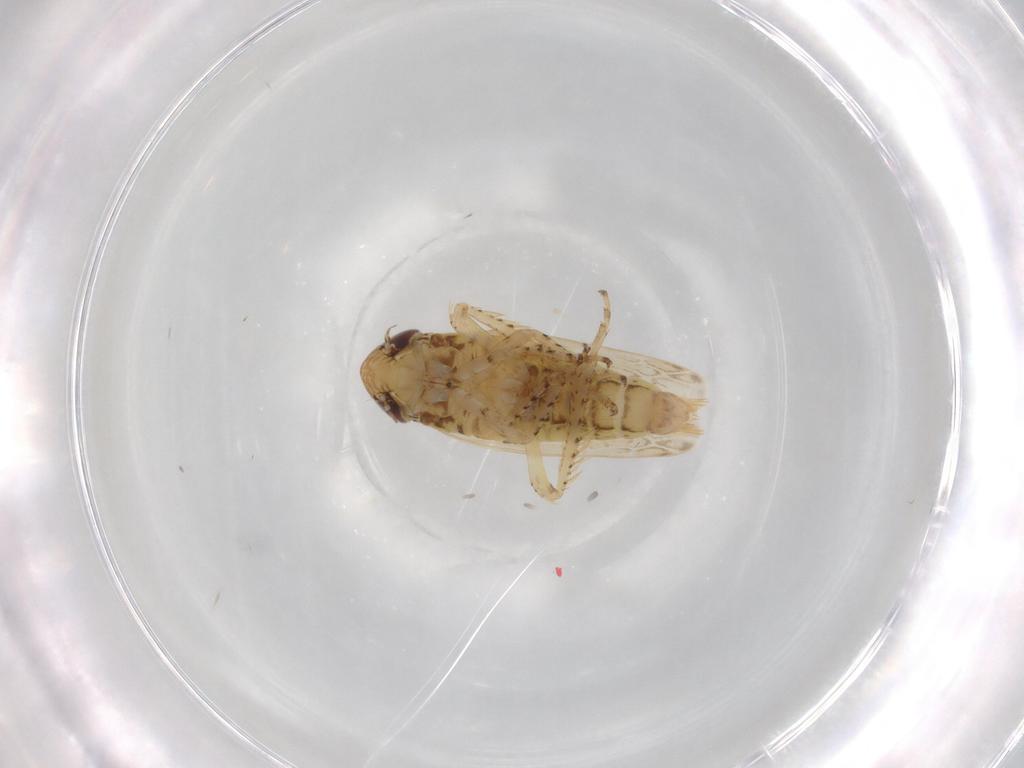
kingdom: Animalia
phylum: Arthropoda
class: Insecta
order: Hemiptera
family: Cicadellidae
